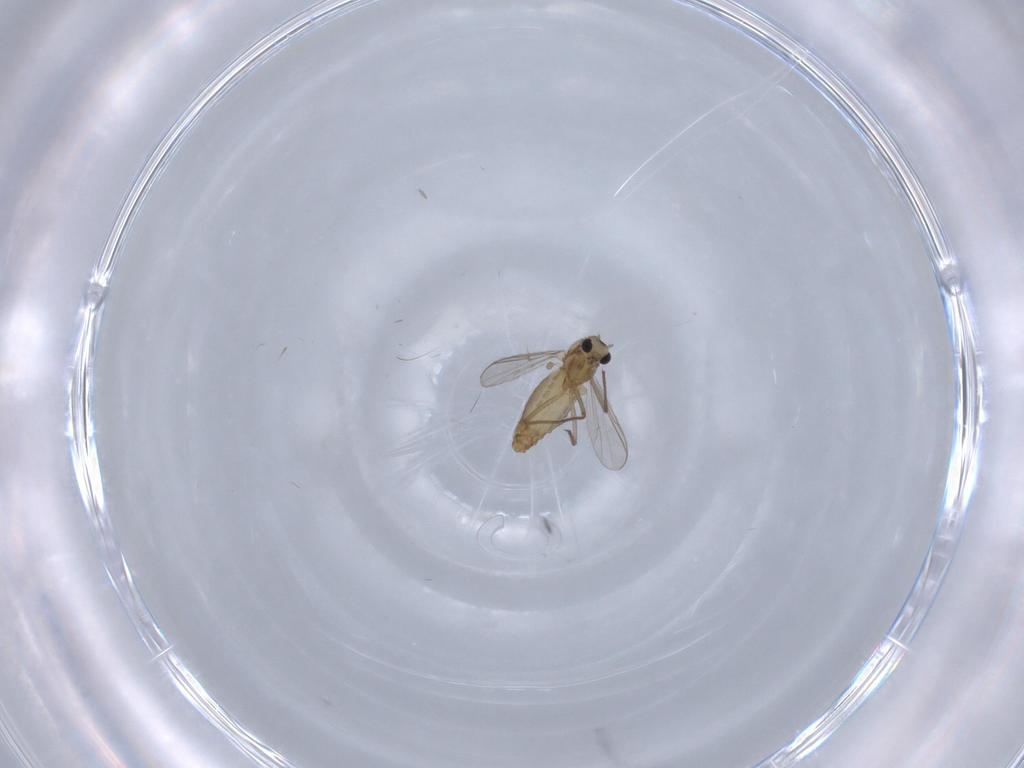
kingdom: Animalia
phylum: Arthropoda
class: Insecta
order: Diptera
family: Chironomidae
